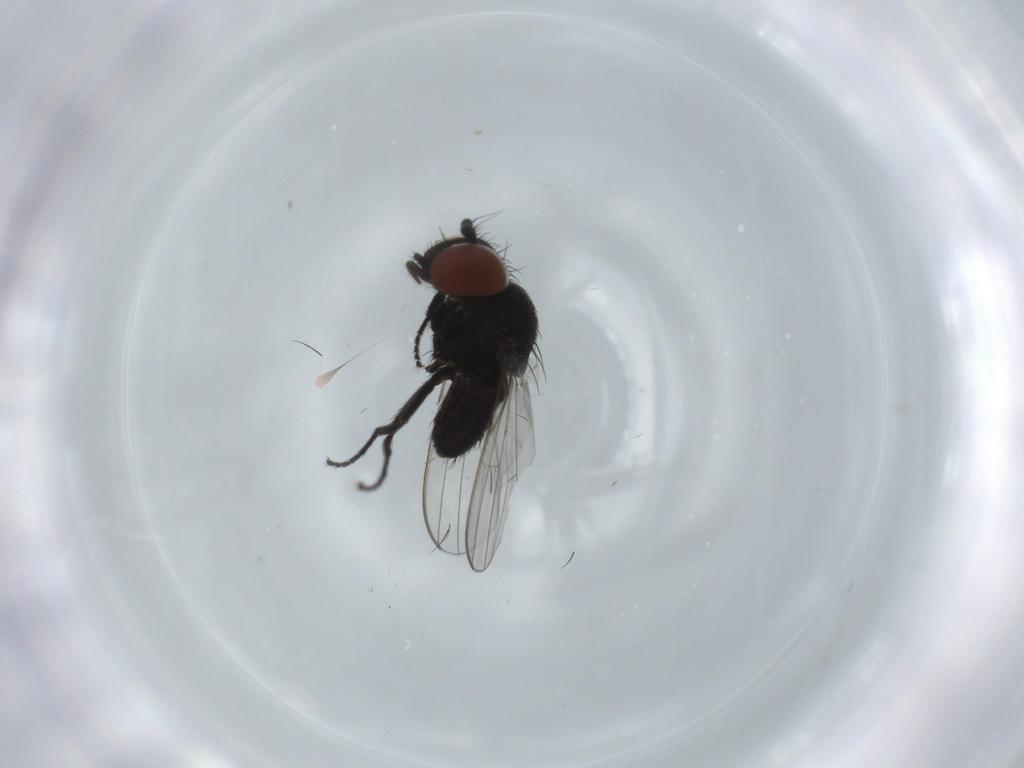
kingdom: Animalia
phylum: Arthropoda
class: Insecta
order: Diptera
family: Milichiidae
